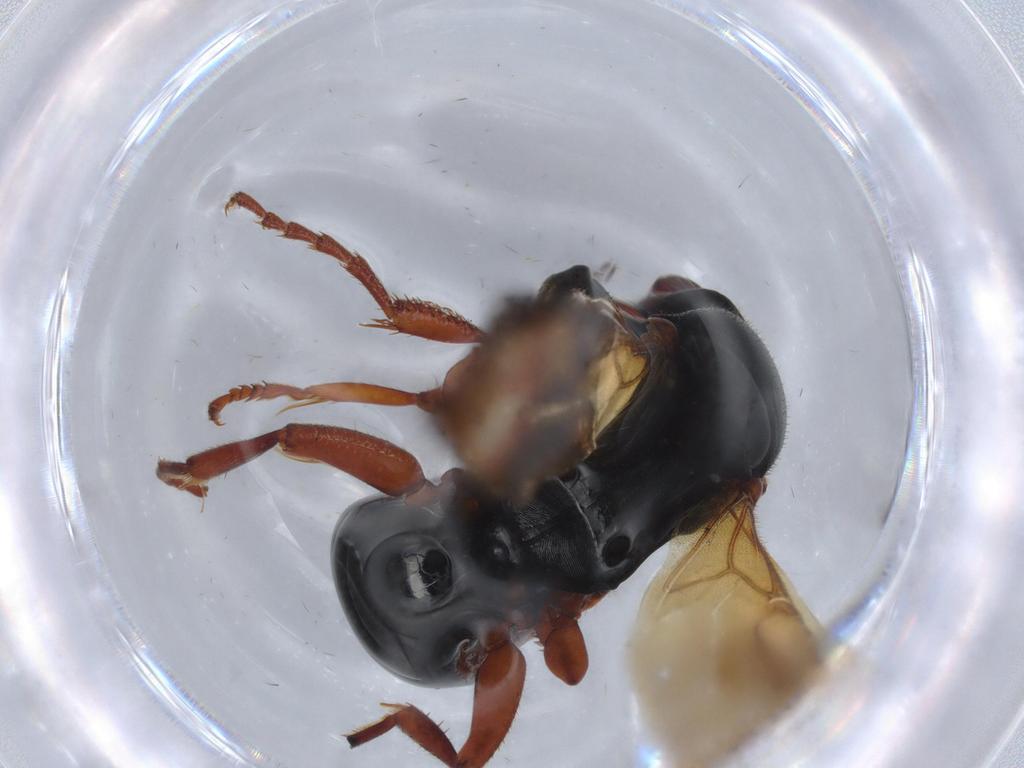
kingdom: Animalia
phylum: Arthropoda
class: Insecta
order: Hymenoptera
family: Bethylidae
